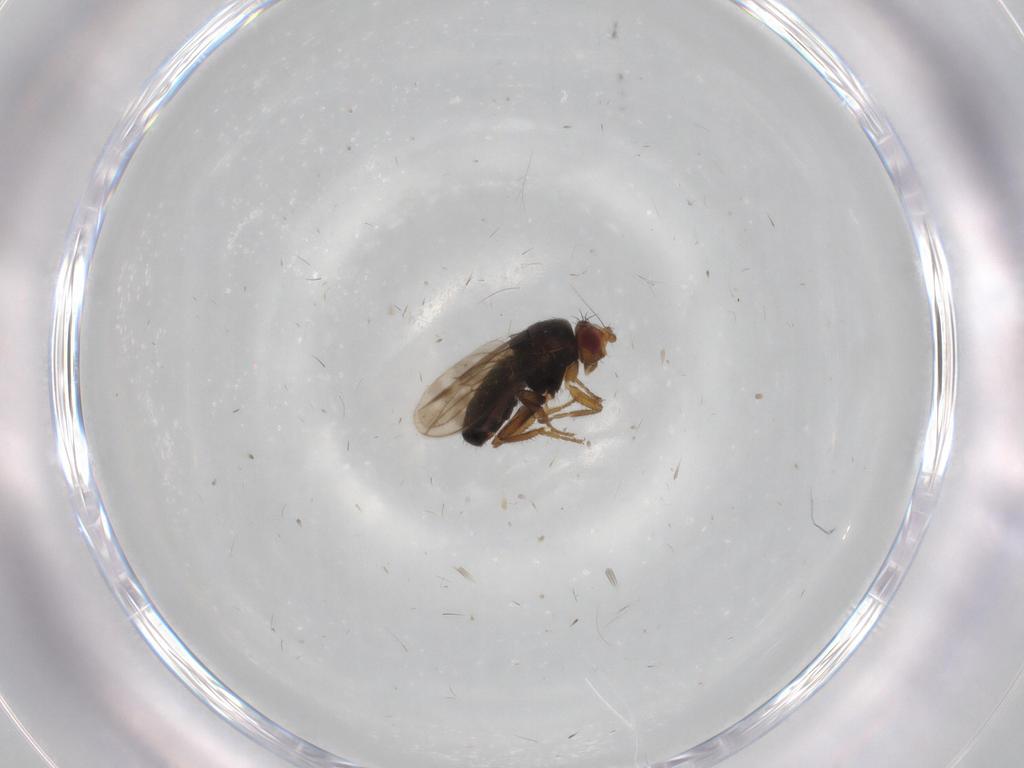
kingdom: Animalia
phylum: Arthropoda
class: Insecta
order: Diptera
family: Sphaeroceridae
